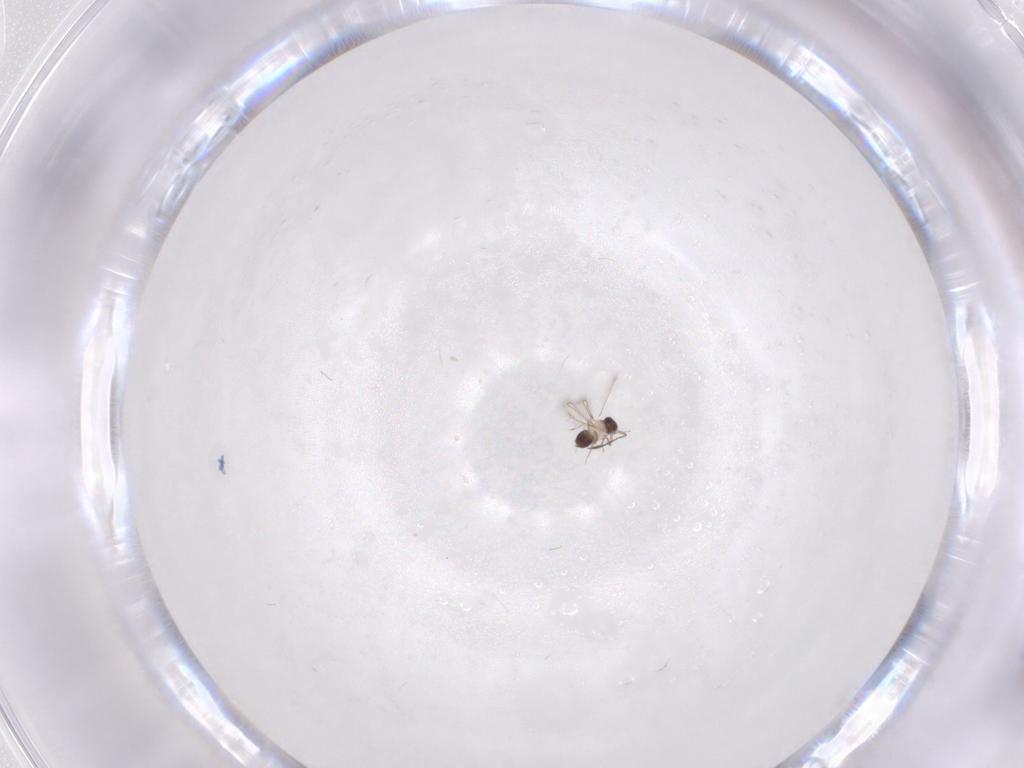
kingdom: Animalia
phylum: Arthropoda
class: Insecta
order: Hymenoptera
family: Mymaridae
